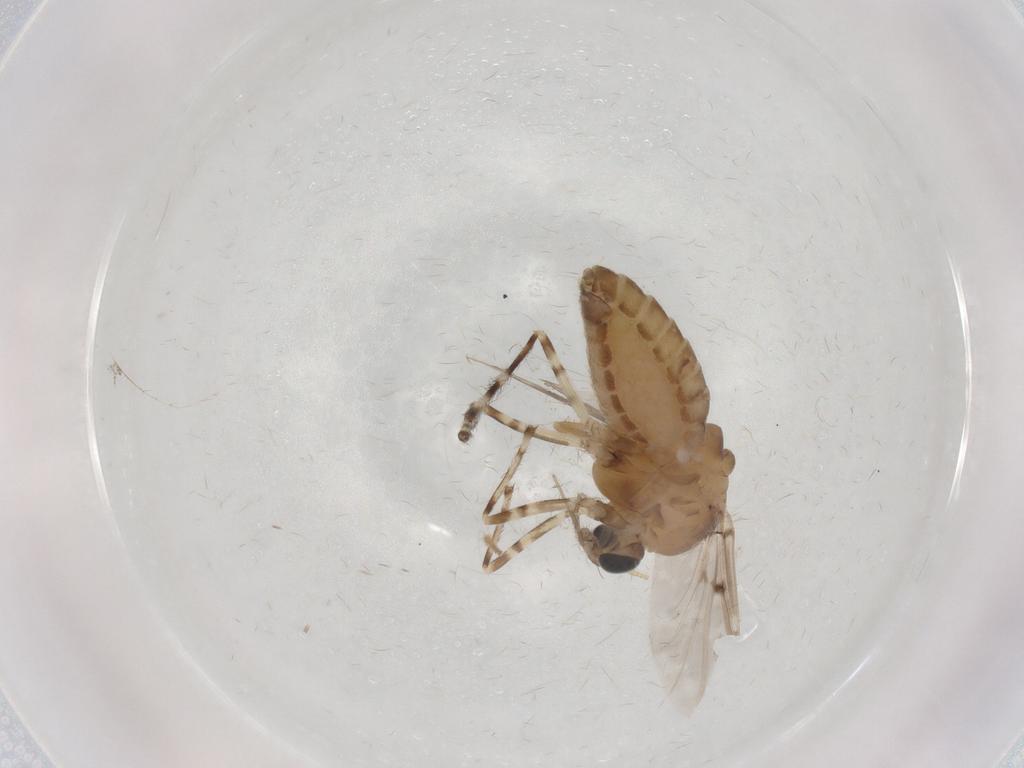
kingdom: Animalia
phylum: Arthropoda
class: Insecta
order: Diptera
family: Chironomidae
